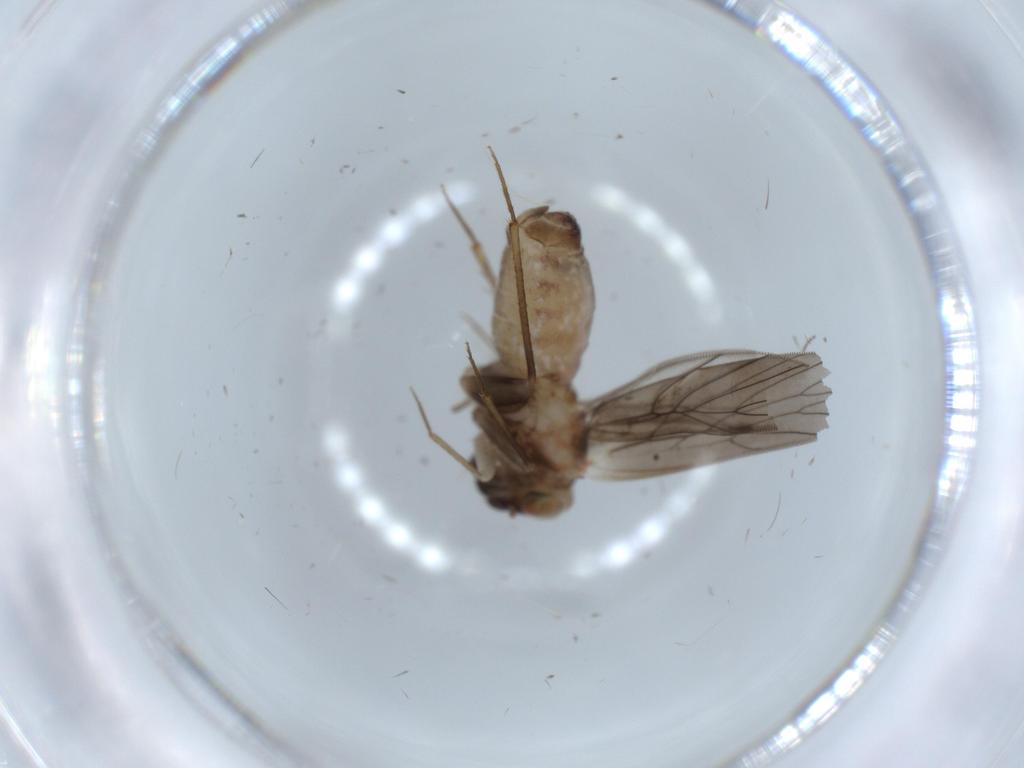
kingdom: Animalia
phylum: Arthropoda
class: Insecta
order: Psocodea
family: Lepidopsocidae
